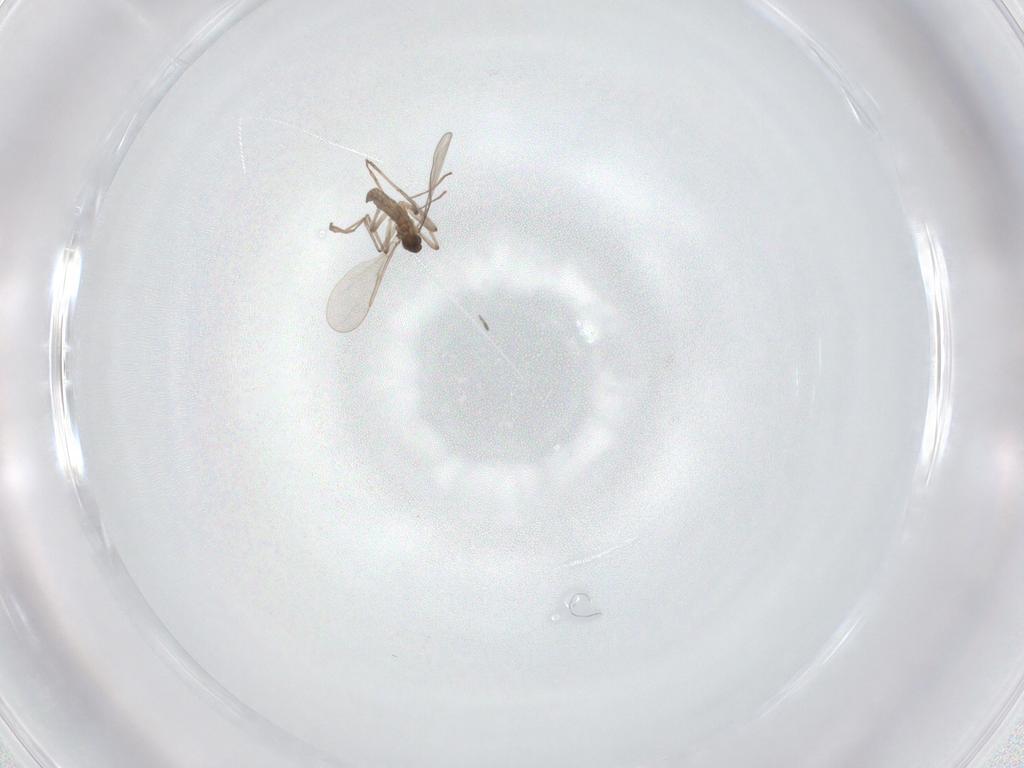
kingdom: Animalia
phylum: Arthropoda
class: Insecta
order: Diptera
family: Cecidomyiidae
